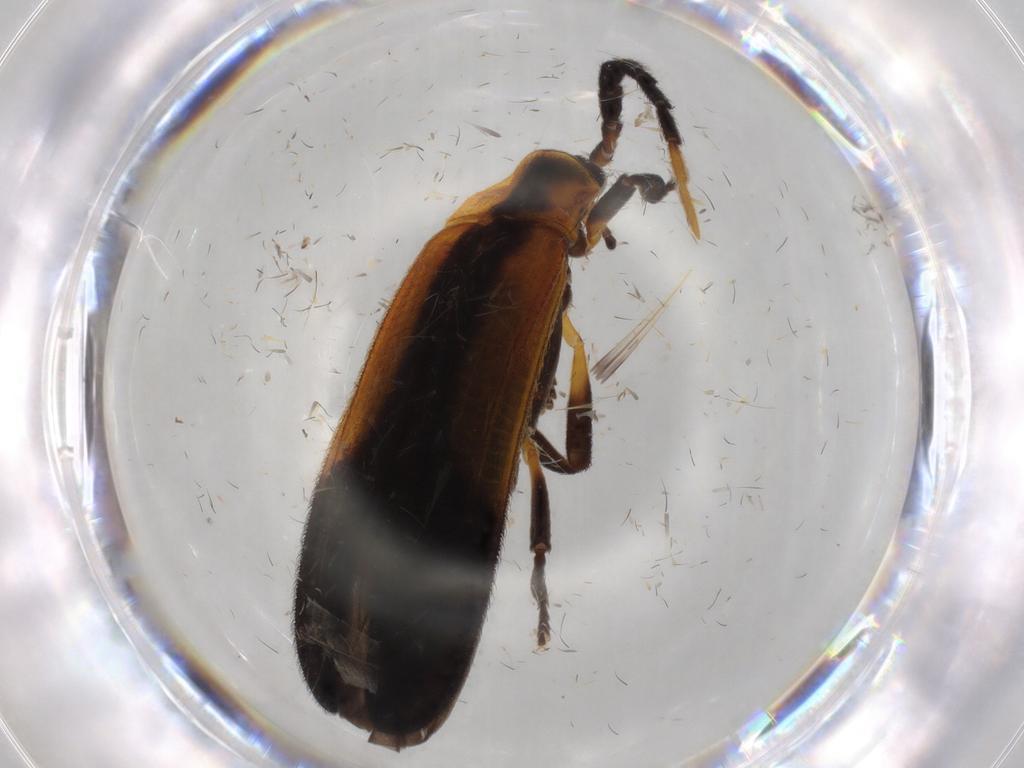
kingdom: Animalia
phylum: Arthropoda
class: Insecta
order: Coleoptera
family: Lycidae
